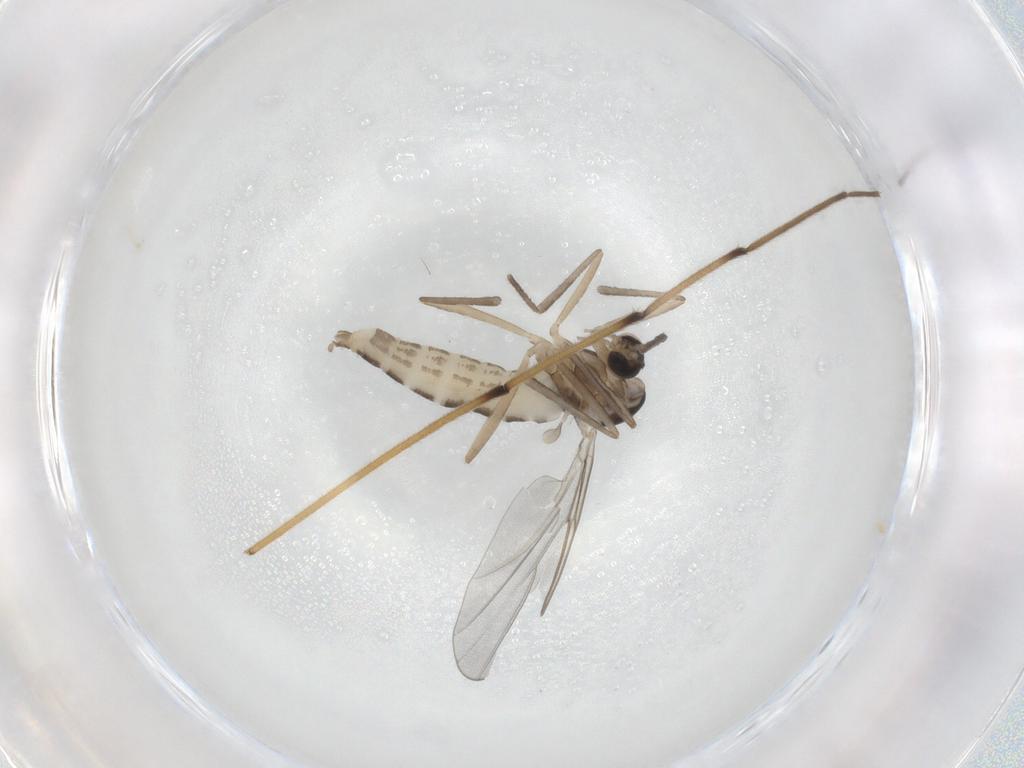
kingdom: Animalia
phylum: Arthropoda
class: Insecta
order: Diptera
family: Cecidomyiidae
